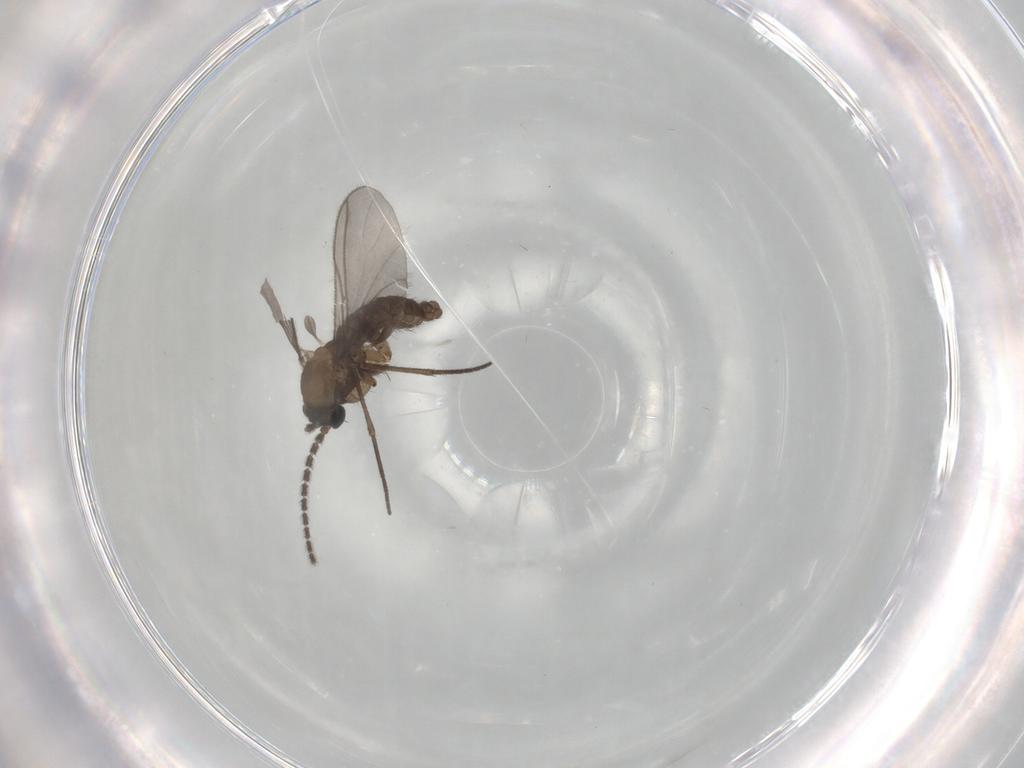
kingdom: Animalia
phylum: Arthropoda
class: Insecta
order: Diptera
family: Sciaridae
